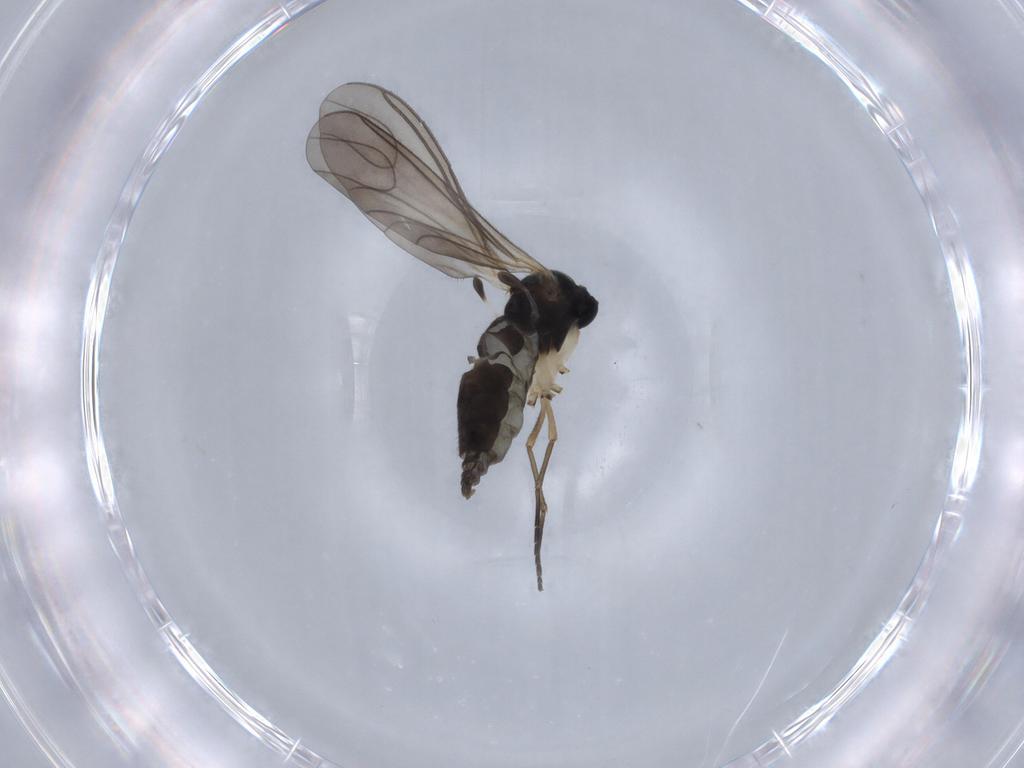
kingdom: Animalia
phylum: Arthropoda
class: Insecta
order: Diptera
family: Sciaridae
